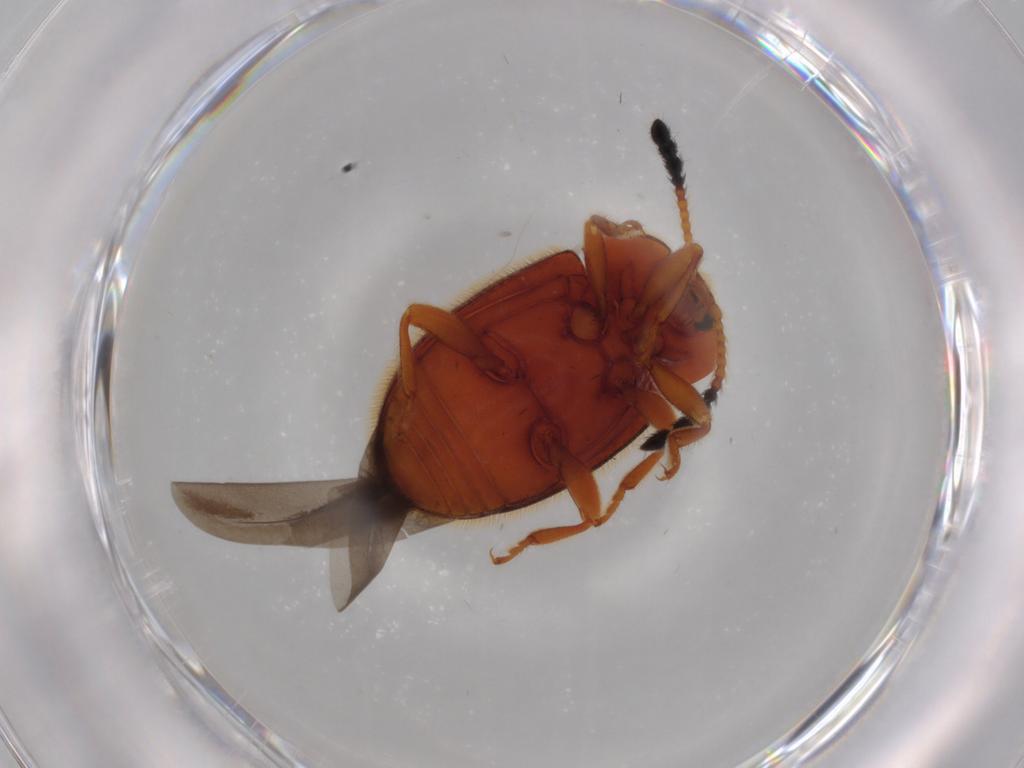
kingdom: Animalia
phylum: Arthropoda
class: Insecta
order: Coleoptera
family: Endomychidae
